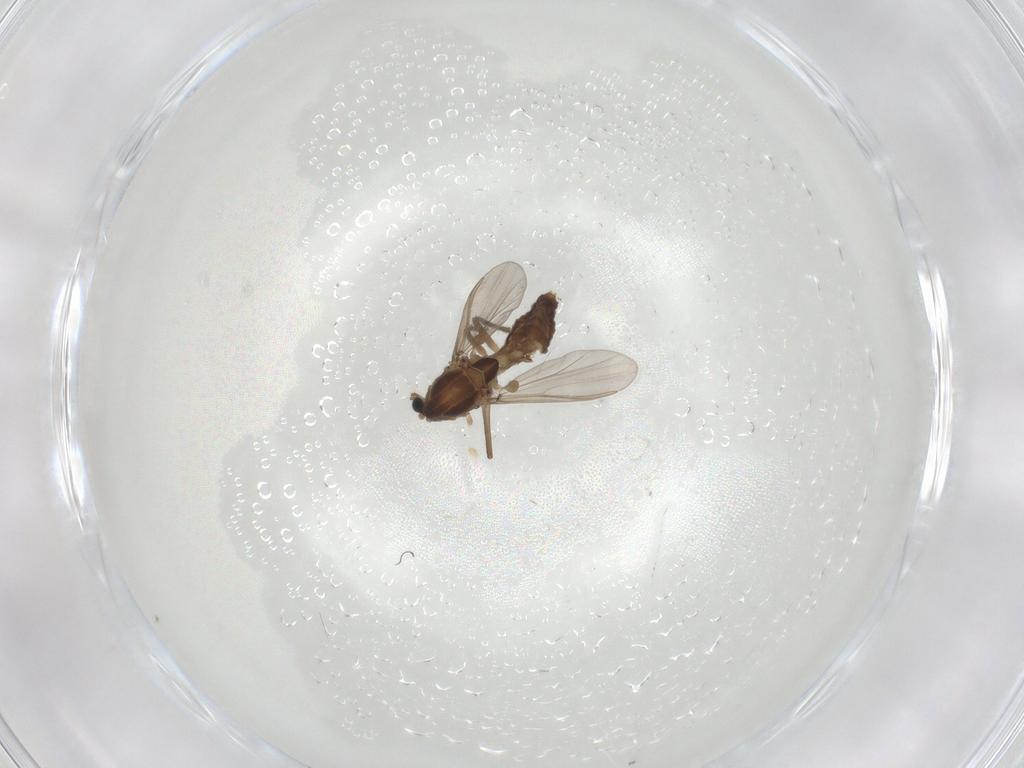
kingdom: Animalia
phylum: Arthropoda
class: Insecta
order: Diptera
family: Chironomidae
